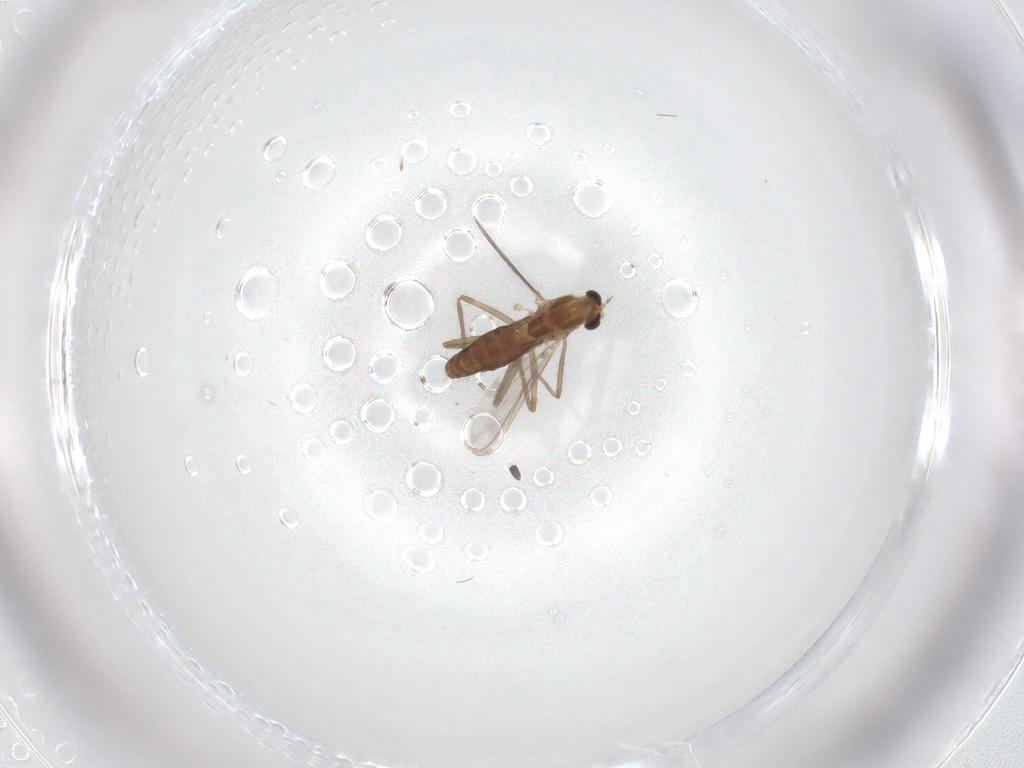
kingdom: Animalia
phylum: Arthropoda
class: Insecta
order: Diptera
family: Chironomidae
